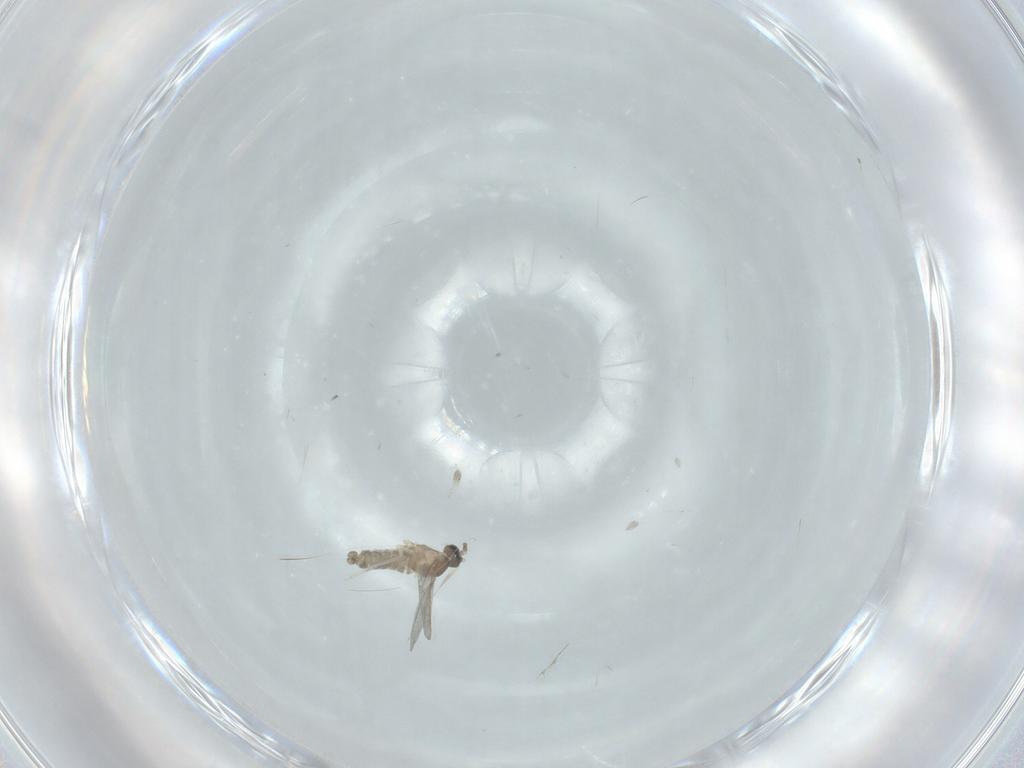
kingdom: Animalia
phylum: Arthropoda
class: Insecta
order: Diptera
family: Cecidomyiidae
